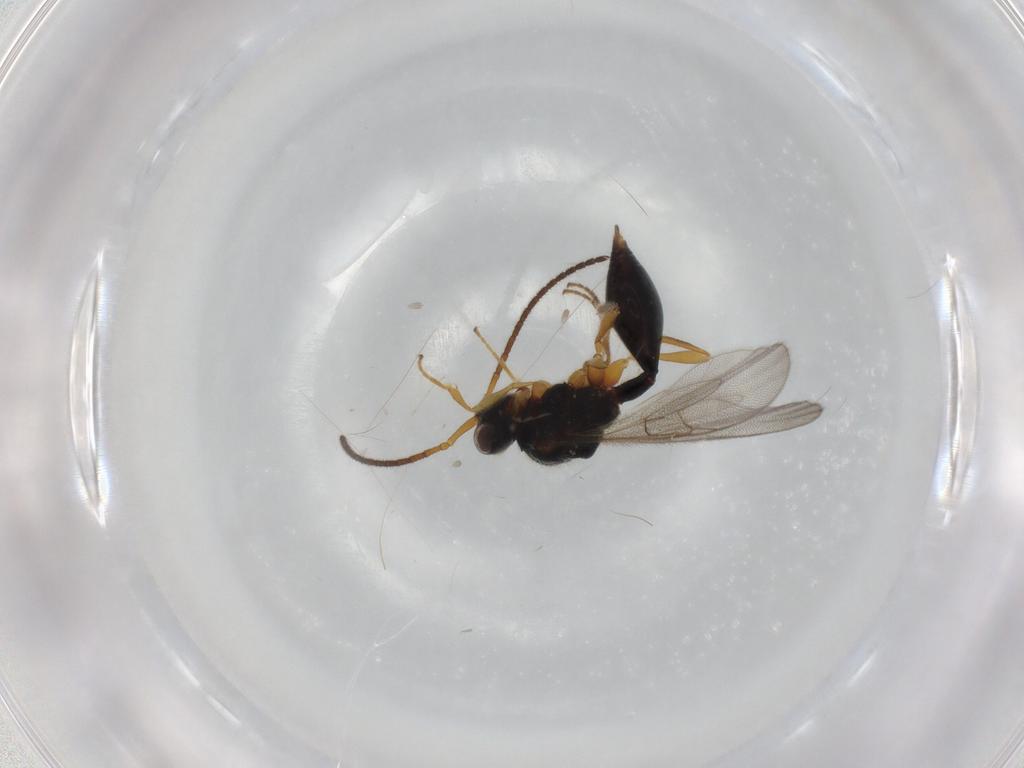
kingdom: Animalia
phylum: Arthropoda
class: Insecta
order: Hymenoptera
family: Diapriidae
